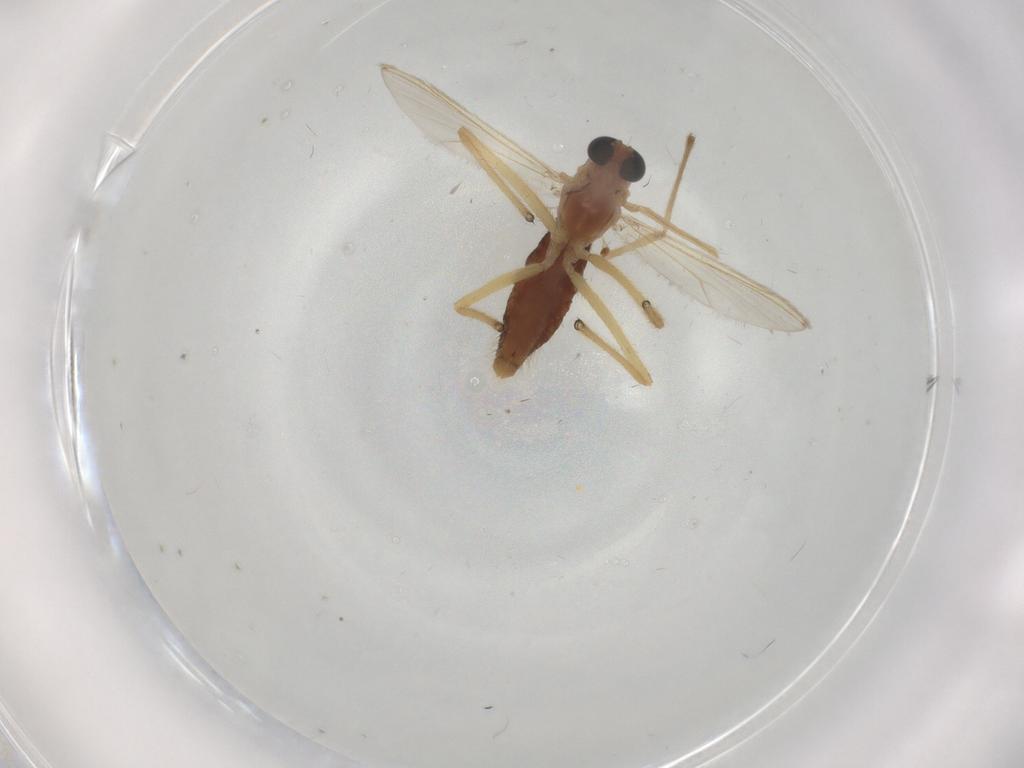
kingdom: Animalia
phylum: Arthropoda
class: Insecta
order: Diptera
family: Chironomidae
